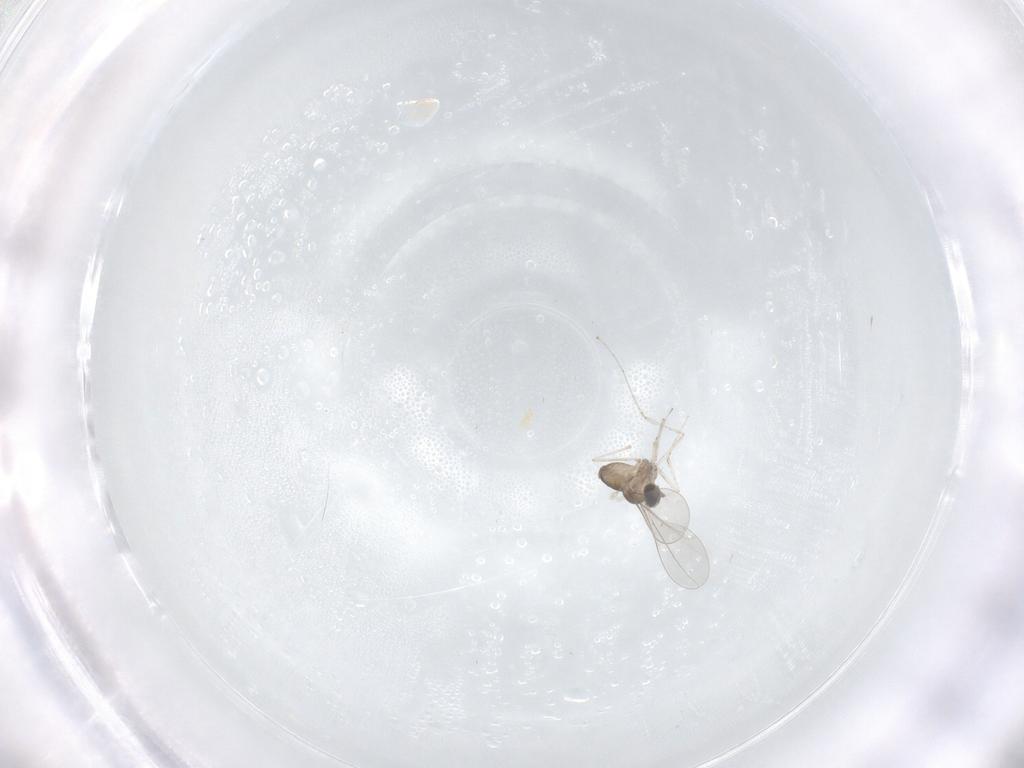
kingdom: Animalia
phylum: Arthropoda
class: Insecta
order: Diptera
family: Cecidomyiidae
